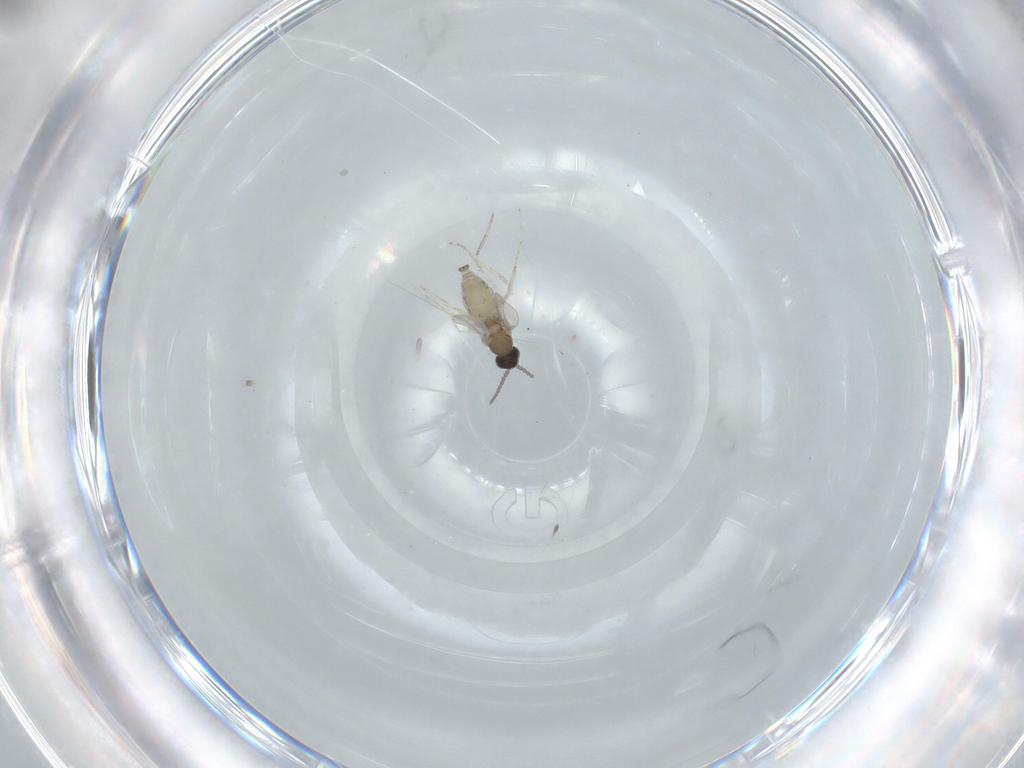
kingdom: Animalia
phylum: Arthropoda
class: Insecta
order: Diptera
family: Cecidomyiidae
